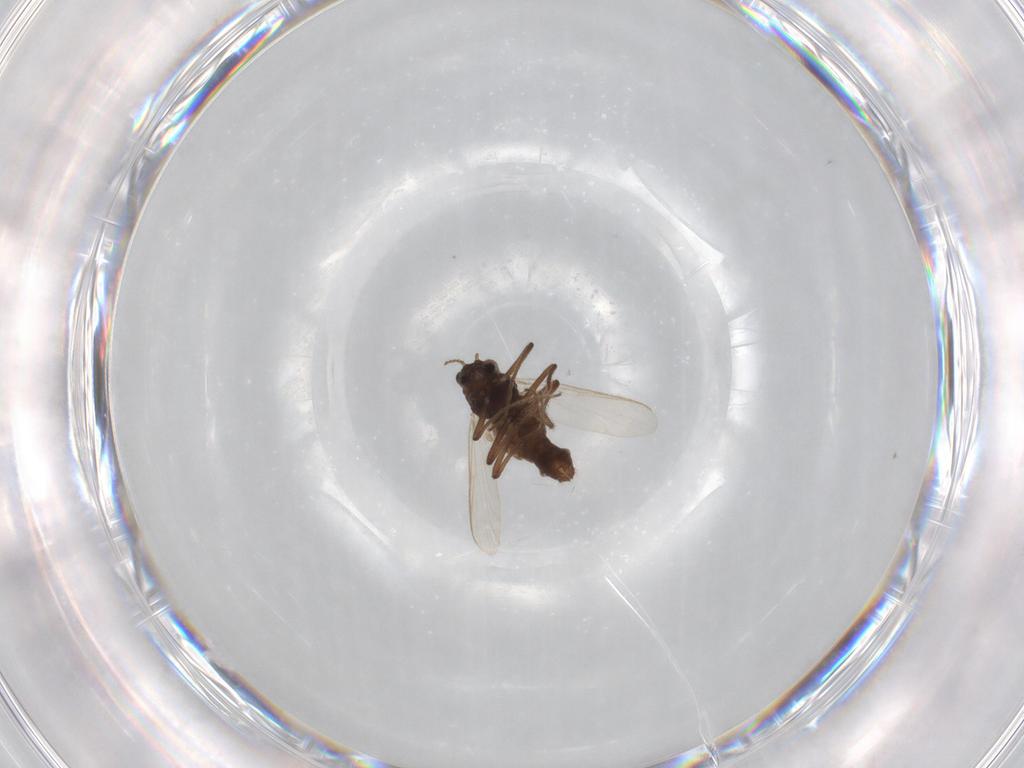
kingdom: Animalia
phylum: Arthropoda
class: Insecta
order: Diptera
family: Chironomidae
